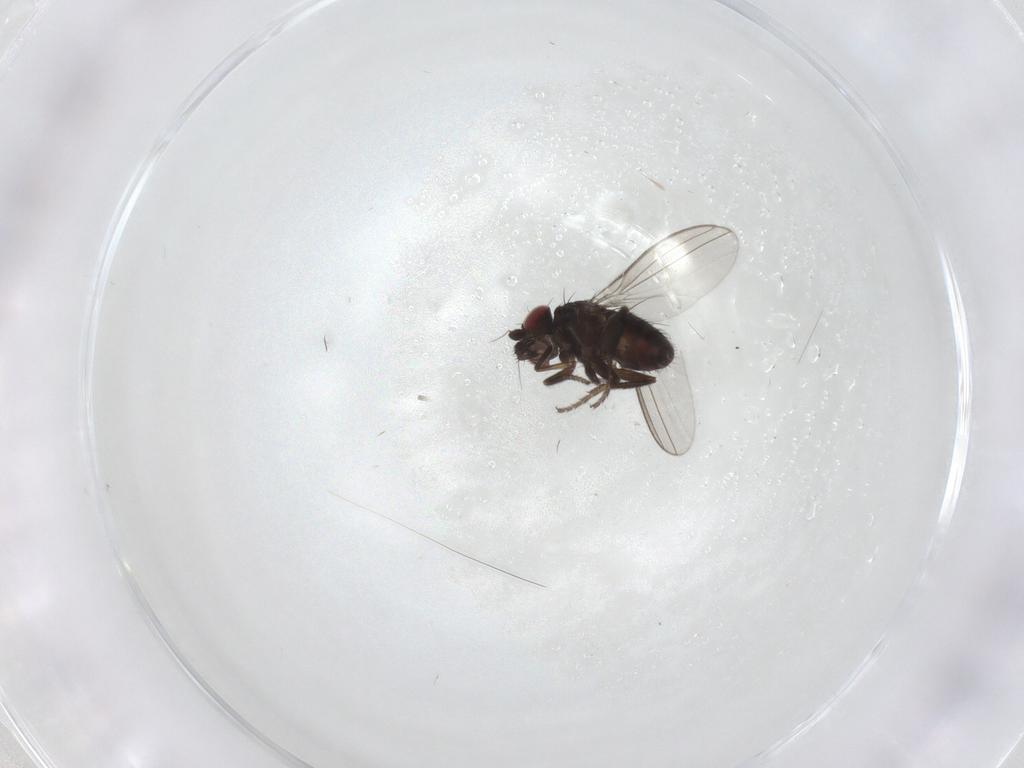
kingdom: Animalia
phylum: Arthropoda
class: Insecta
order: Diptera
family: Milichiidae
